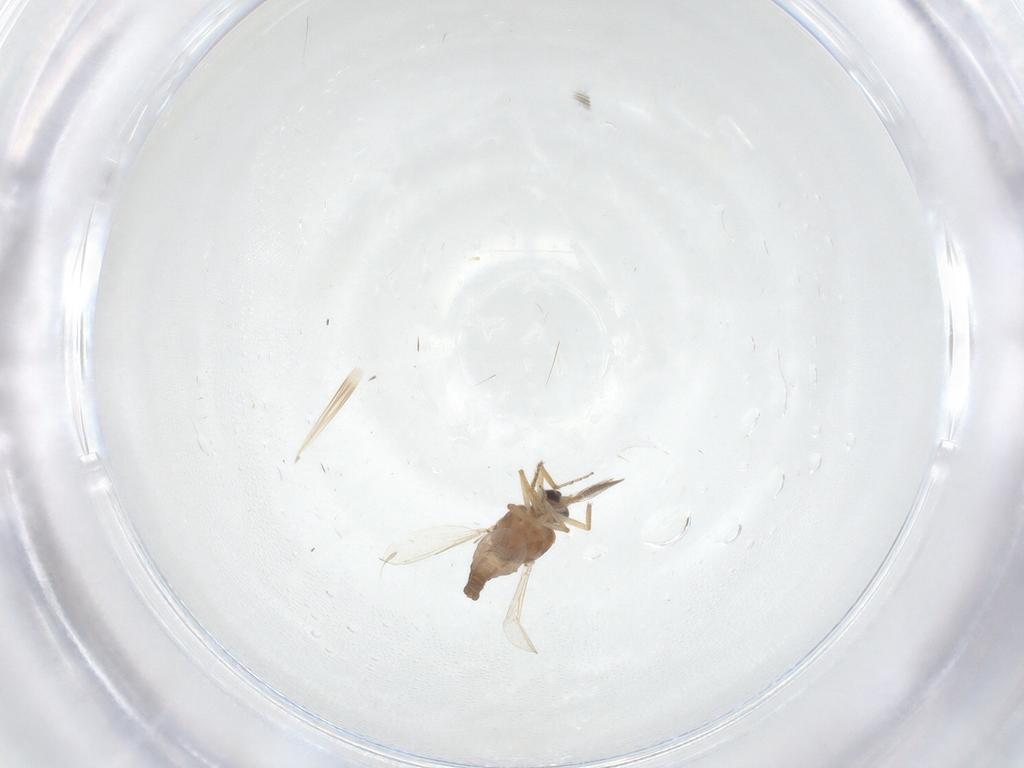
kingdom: Animalia
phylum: Arthropoda
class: Insecta
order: Diptera
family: Ceratopogonidae
